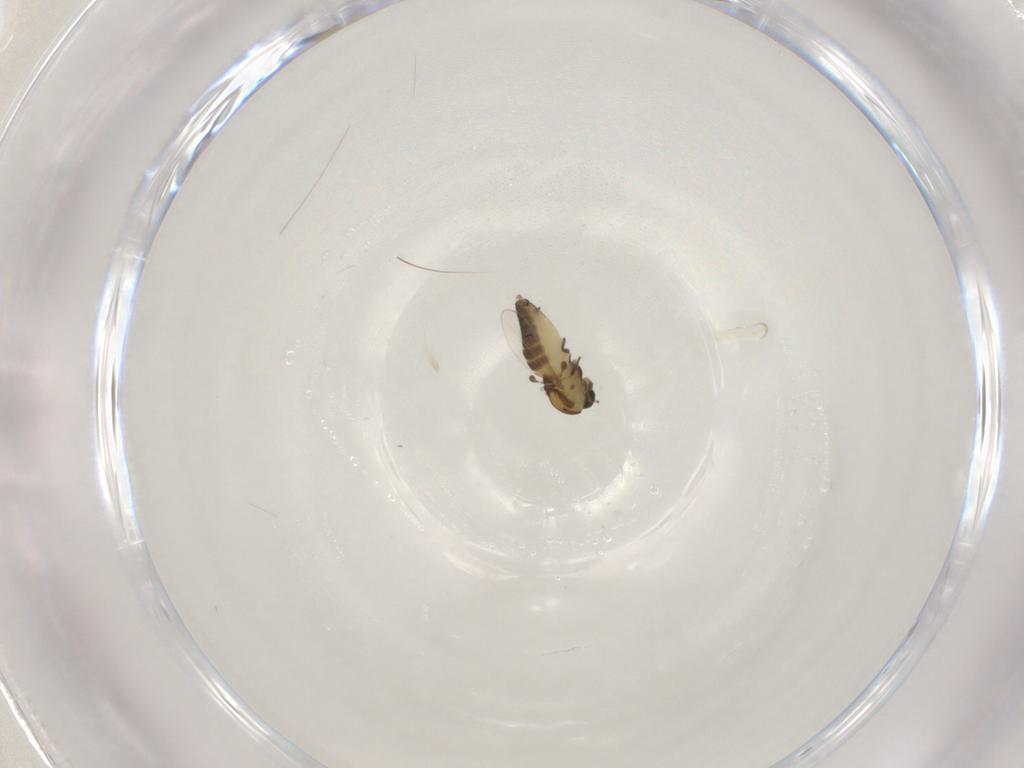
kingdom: Animalia
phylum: Arthropoda
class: Insecta
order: Diptera
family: Chironomidae
